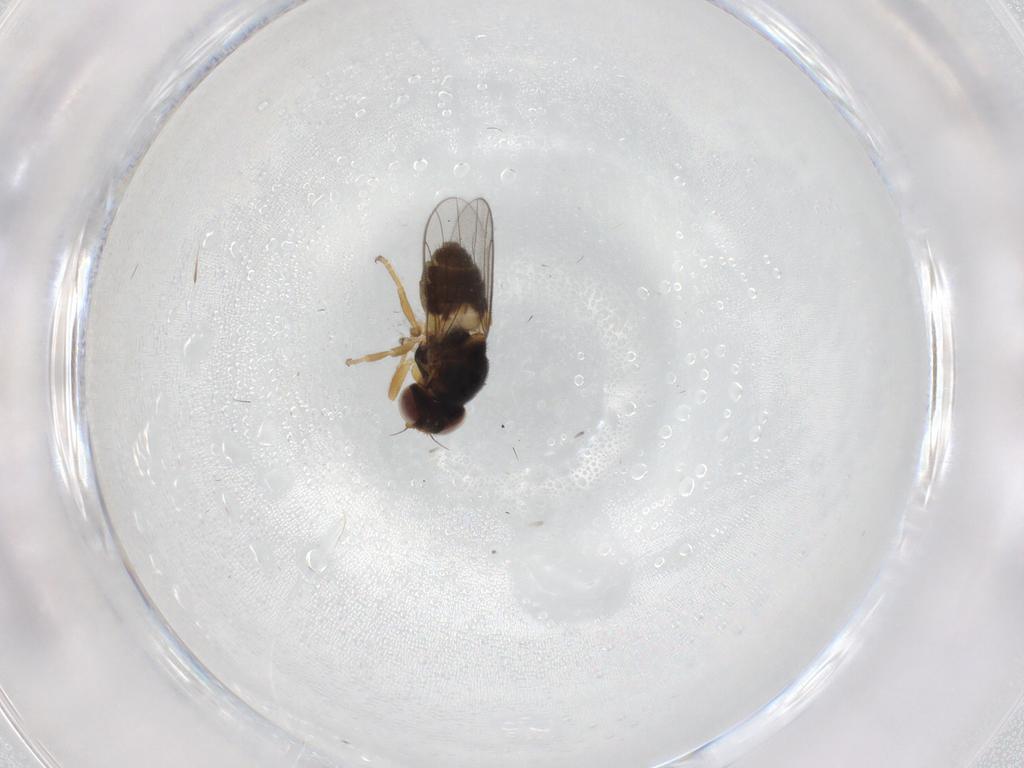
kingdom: Animalia
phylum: Arthropoda
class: Insecta
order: Diptera
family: Chloropidae
